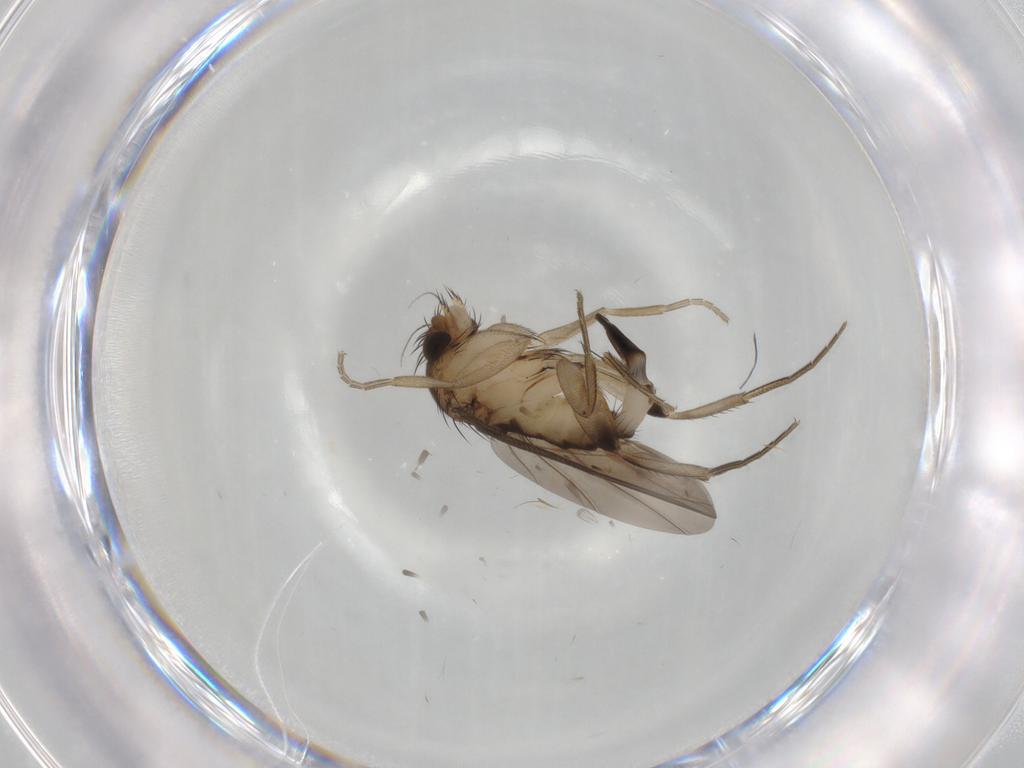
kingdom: Animalia
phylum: Arthropoda
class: Insecta
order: Diptera
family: Phoridae
